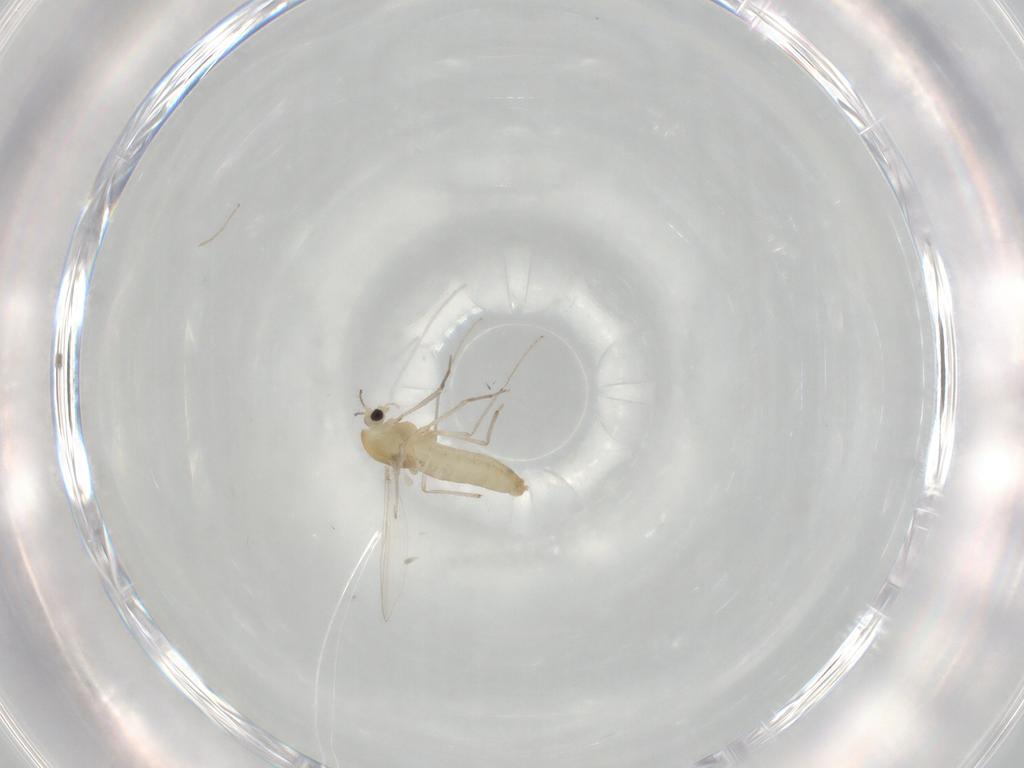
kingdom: Animalia
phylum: Arthropoda
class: Insecta
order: Diptera
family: Chironomidae
